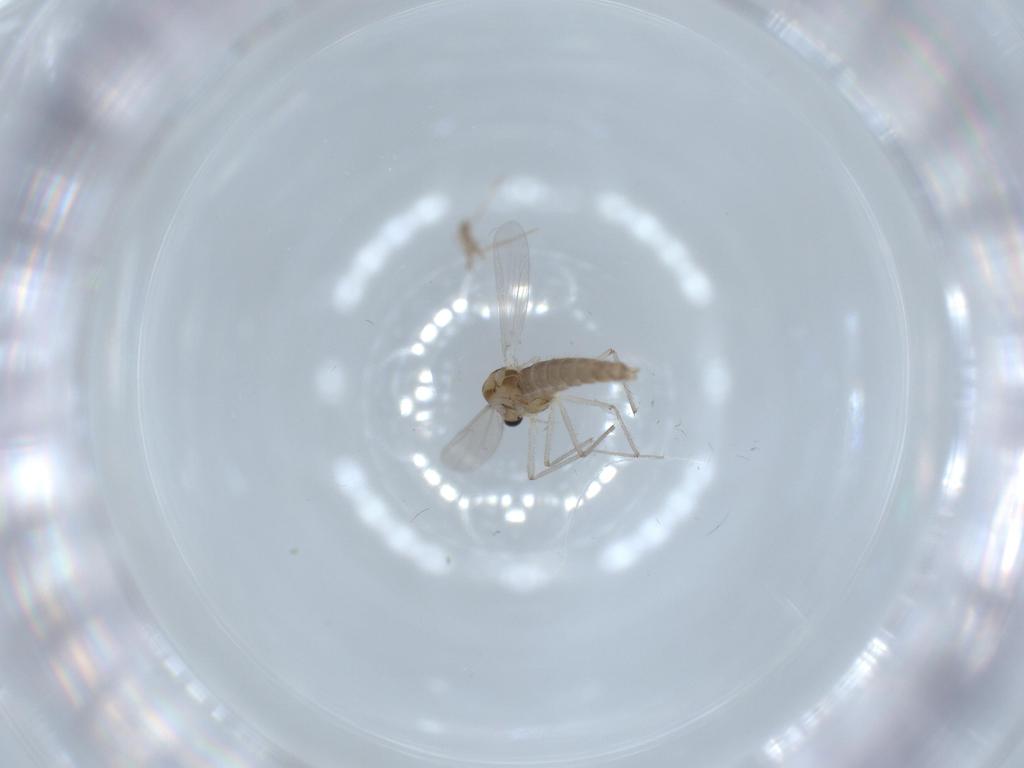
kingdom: Animalia
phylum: Arthropoda
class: Insecta
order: Diptera
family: Chironomidae
